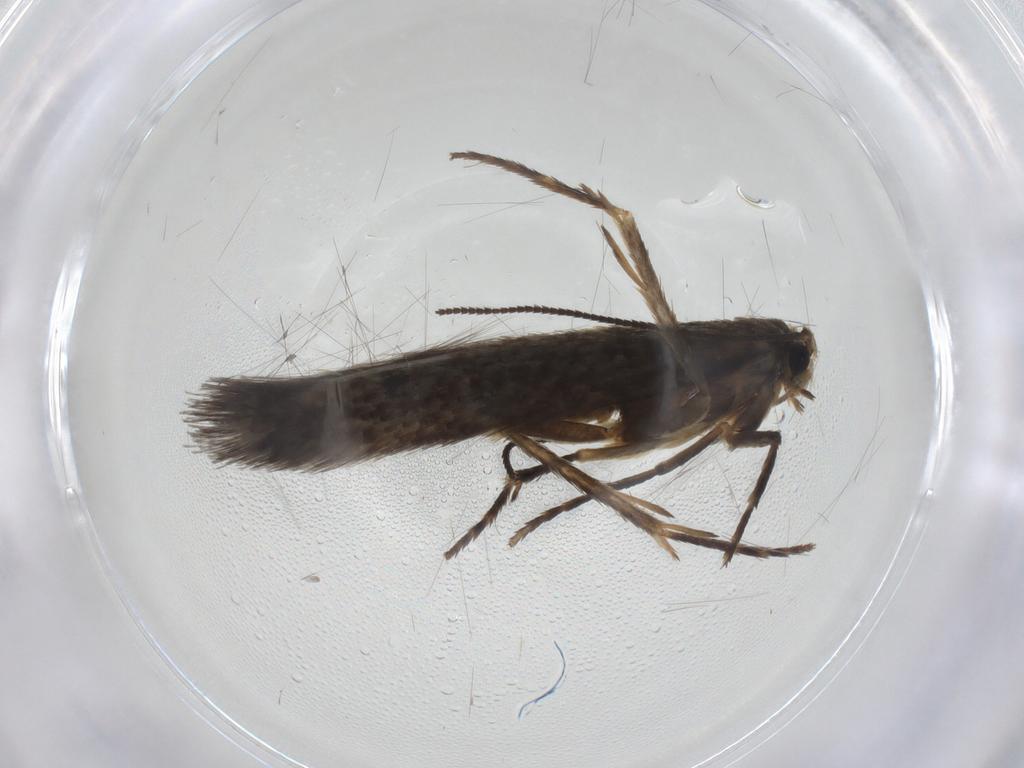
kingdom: Animalia
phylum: Arthropoda
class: Insecta
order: Lepidoptera
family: Nepticulidae
